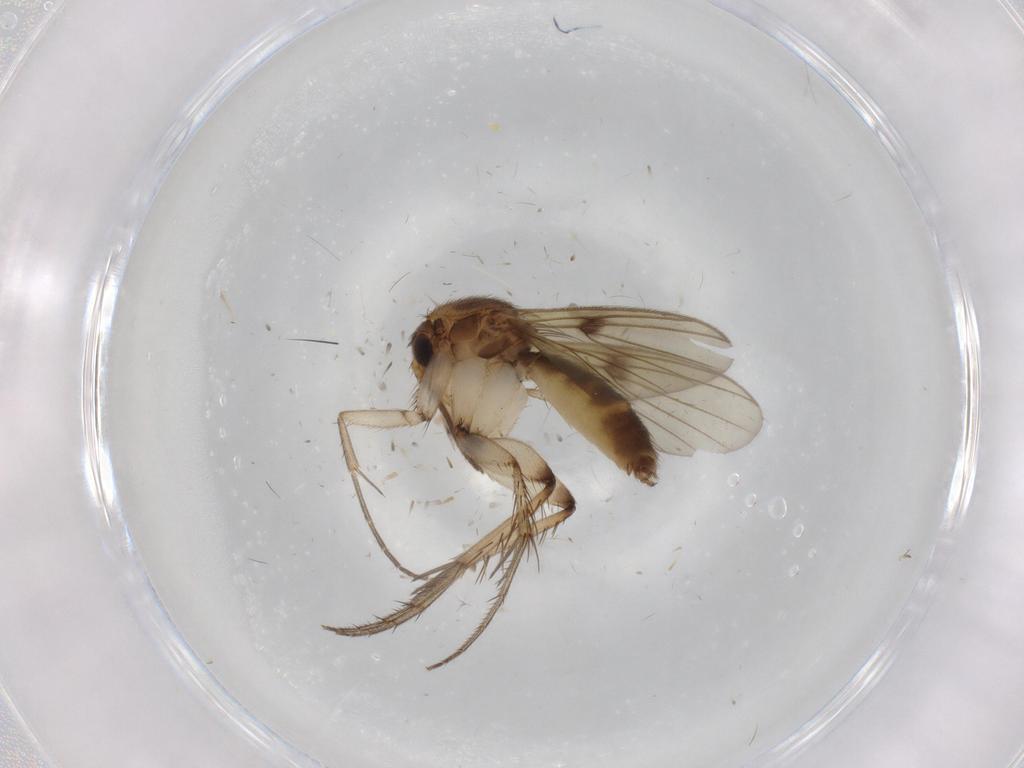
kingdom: Animalia
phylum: Arthropoda
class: Insecta
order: Diptera
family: Mycetophilidae
